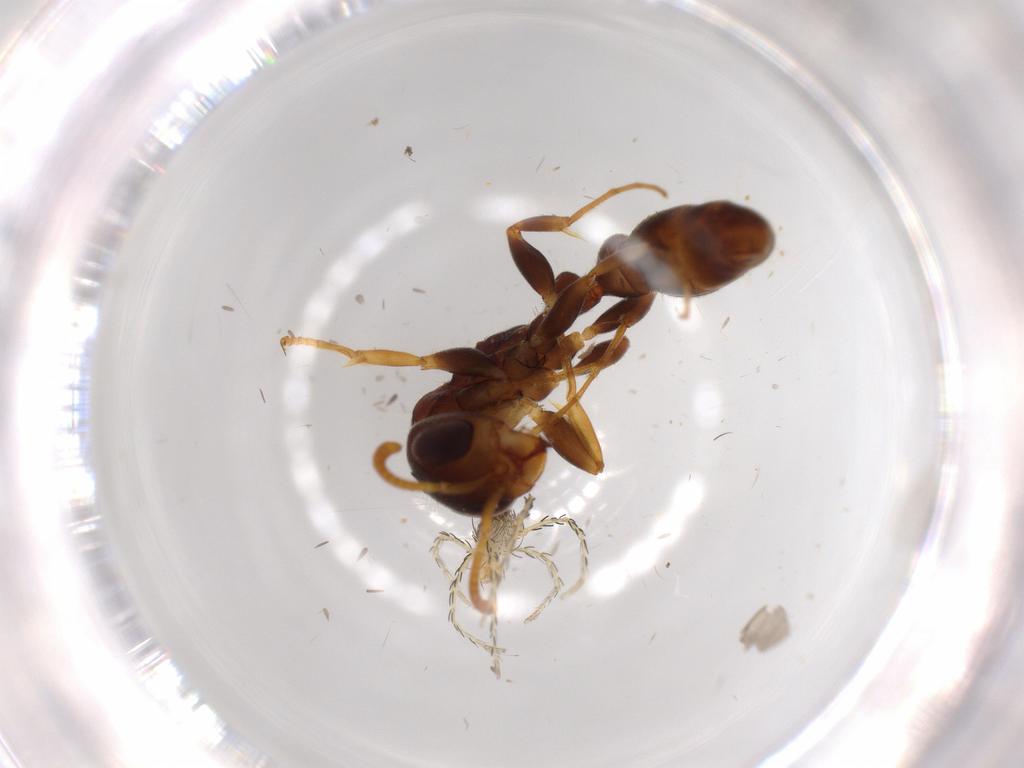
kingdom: Animalia
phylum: Arthropoda
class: Insecta
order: Hymenoptera
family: Formicidae
